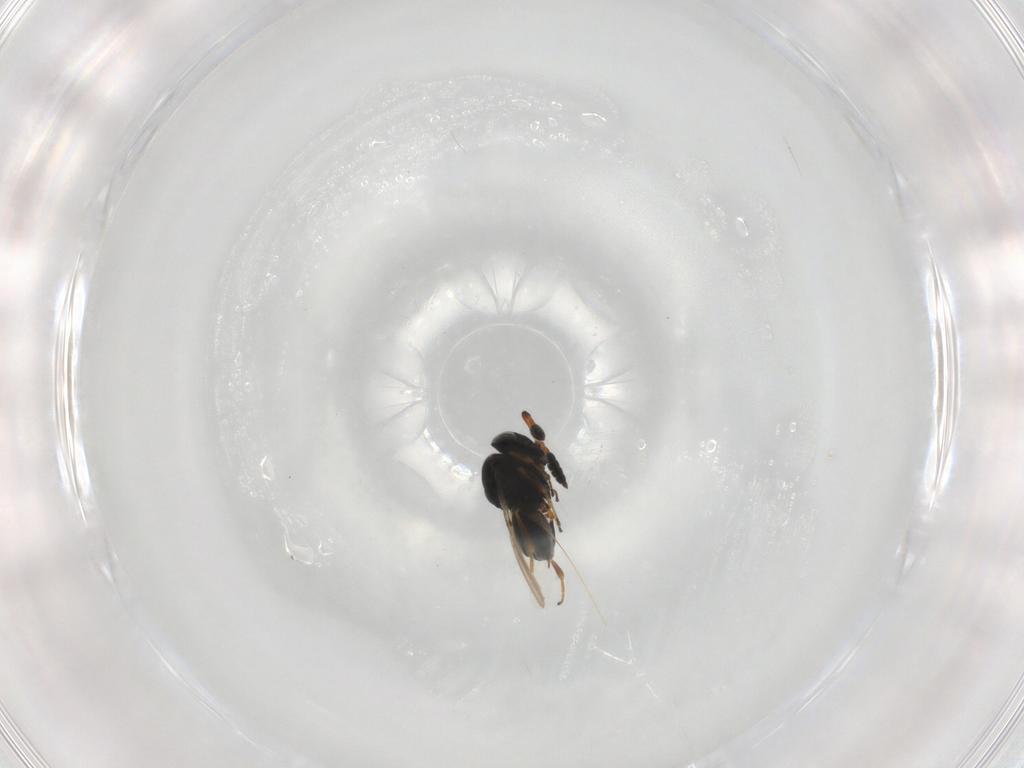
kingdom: Animalia
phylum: Arthropoda
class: Insecta
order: Hymenoptera
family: Scelionidae
